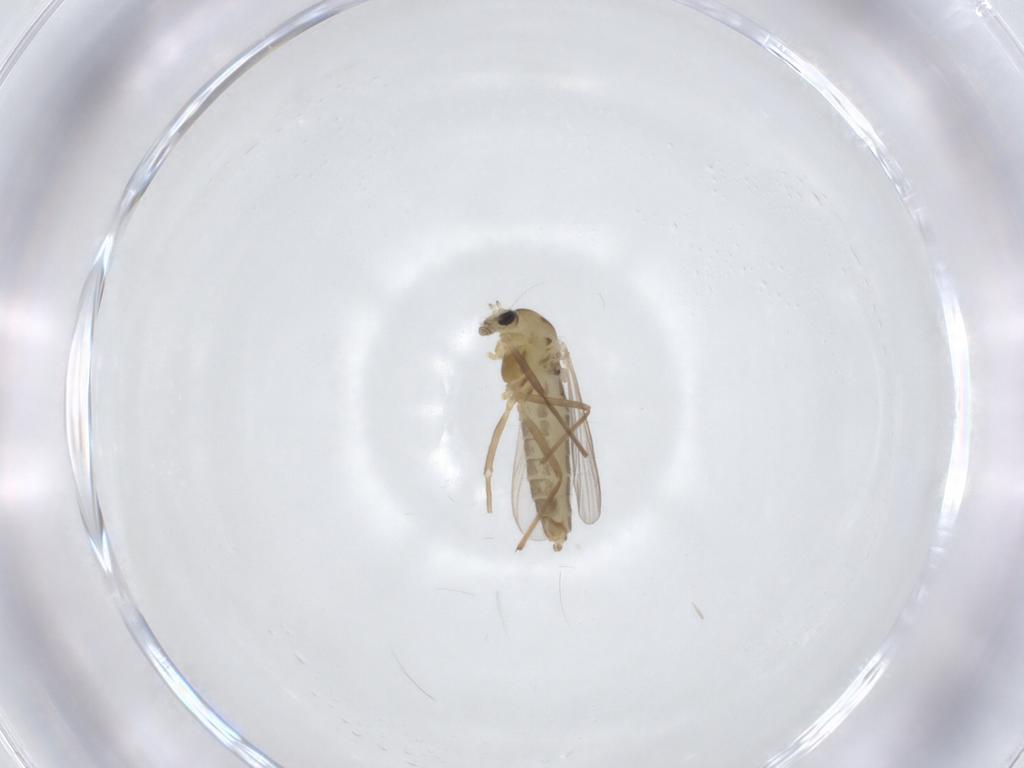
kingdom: Animalia
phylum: Arthropoda
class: Insecta
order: Diptera
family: Chironomidae
